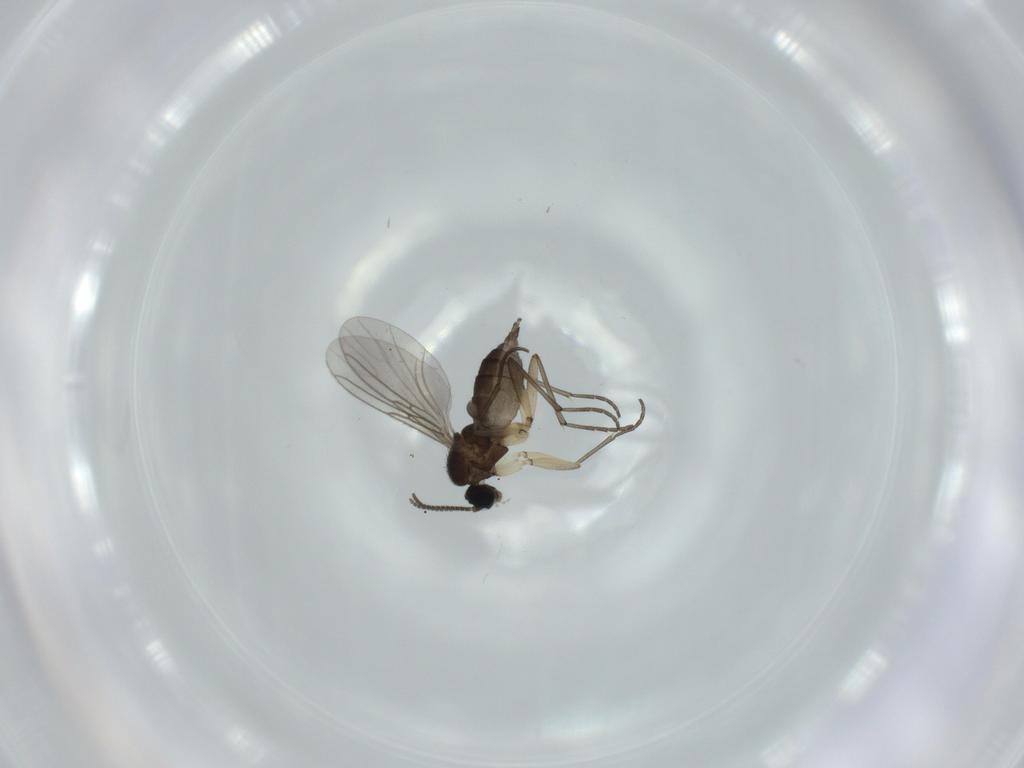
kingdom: Animalia
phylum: Arthropoda
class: Insecta
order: Diptera
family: Sciaridae
